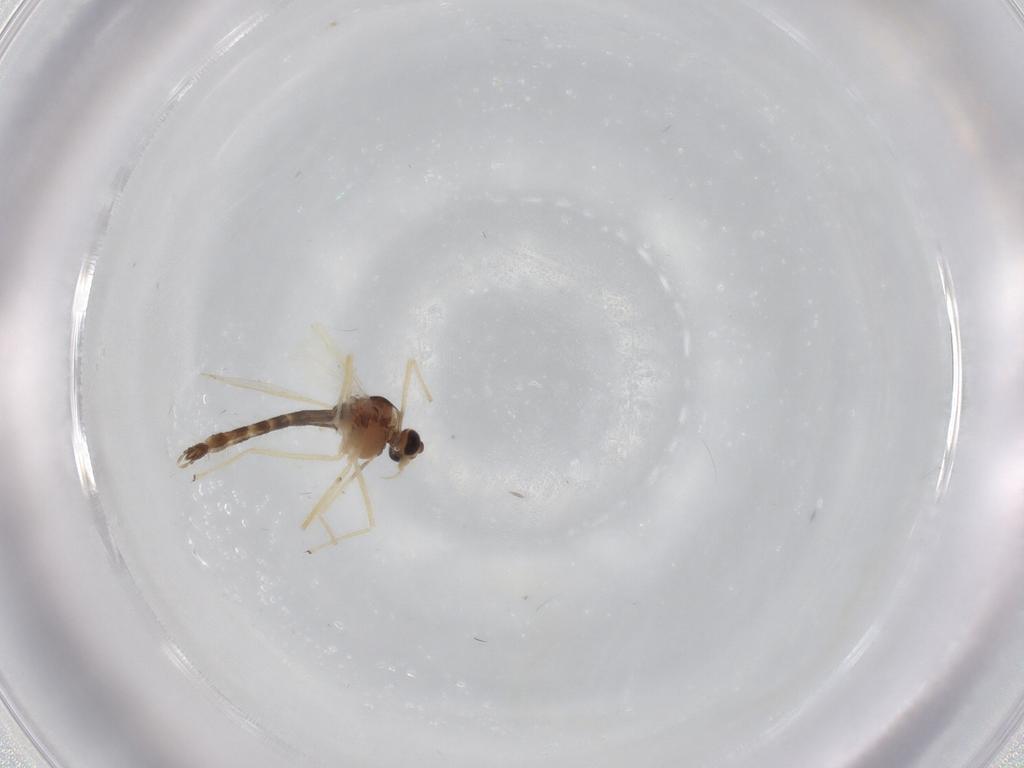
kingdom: Animalia
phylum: Arthropoda
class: Insecta
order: Diptera
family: Chironomidae
